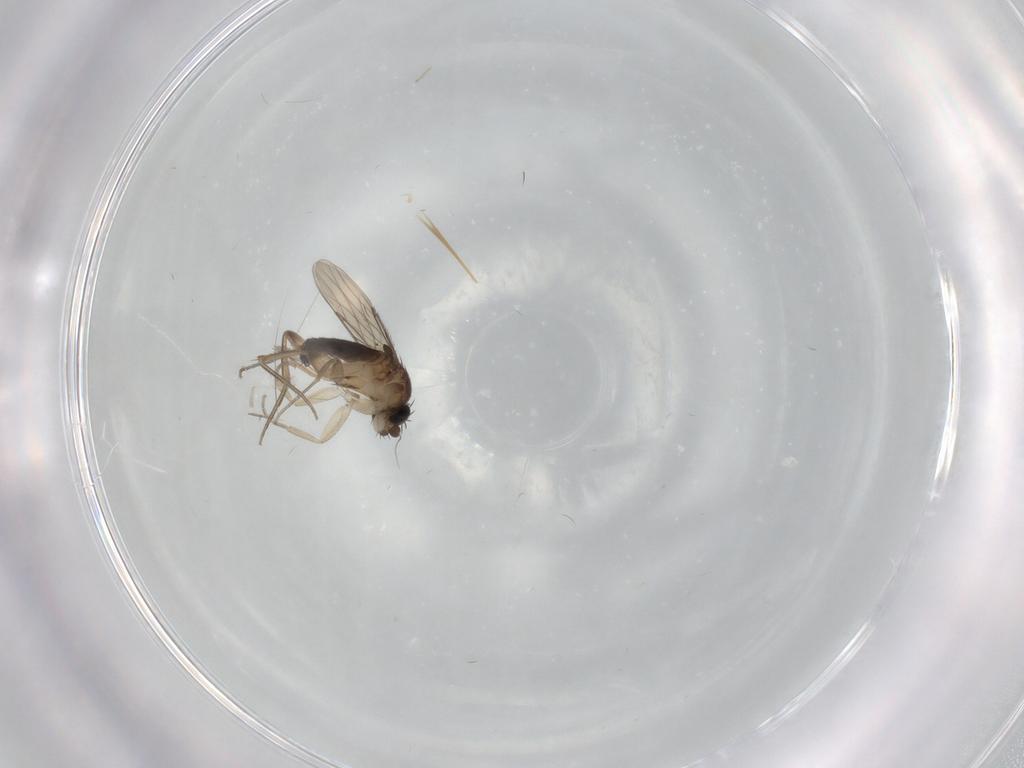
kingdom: Animalia
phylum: Arthropoda
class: Insecta
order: Diptera
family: Phoridae
